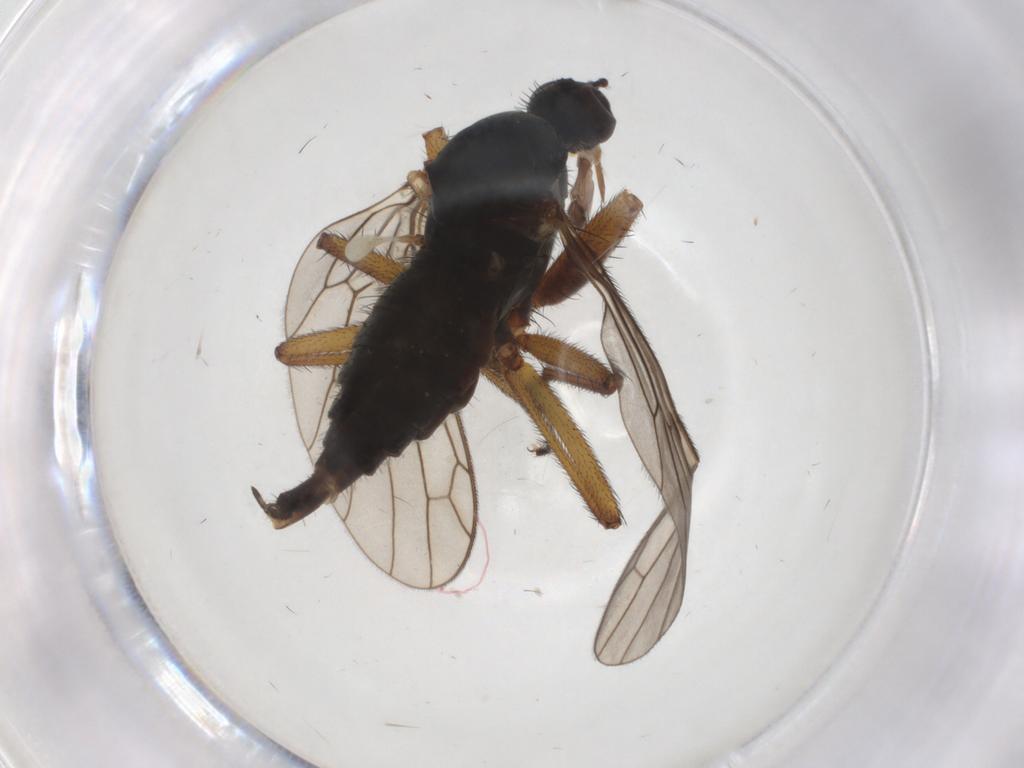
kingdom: Animalia
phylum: Arthropoda
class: Insecta
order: Diptera
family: Empididae
